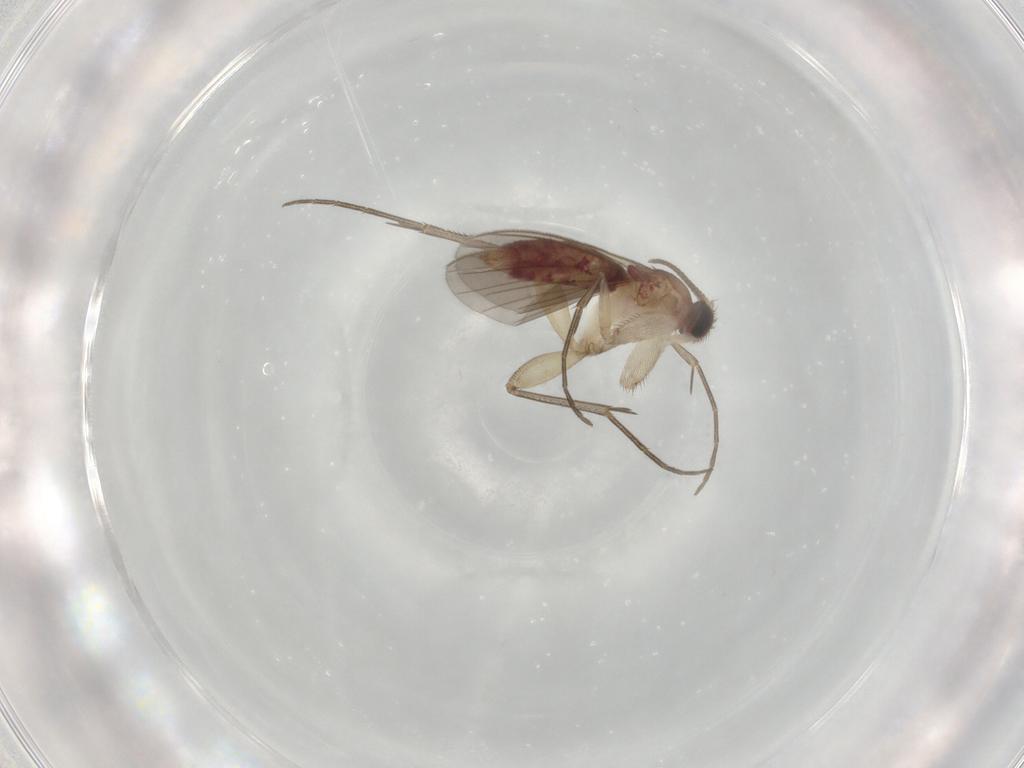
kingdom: Animalia
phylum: Arthropoda
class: Insecta
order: Diptera
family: Mycetophilidae
